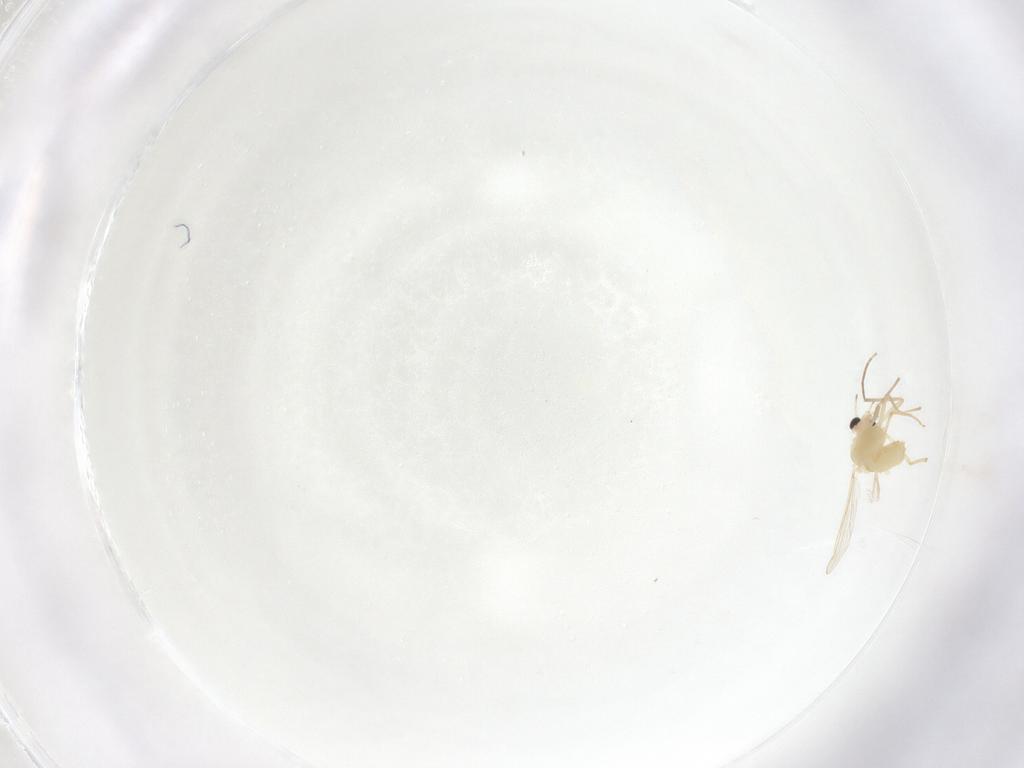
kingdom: Animalia
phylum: Arthropoda
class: Insecta
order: Diptera
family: Chironomidae
